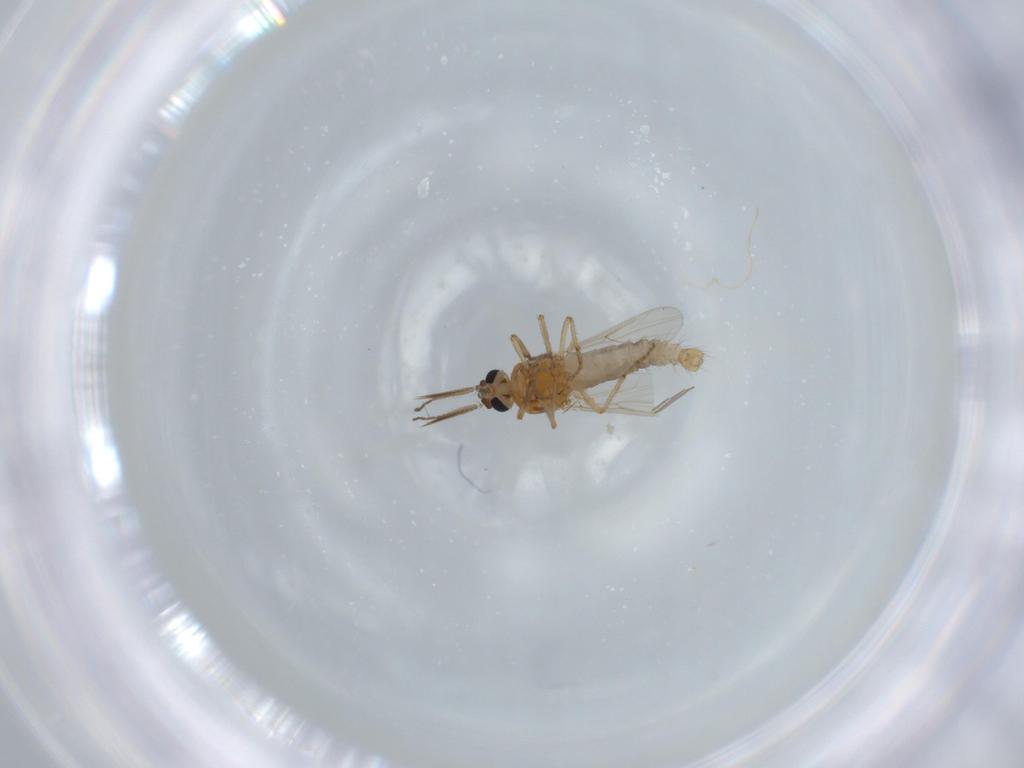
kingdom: Animalia
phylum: Arthropoda
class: Insecta
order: Diptera
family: Ceratopogonidae
